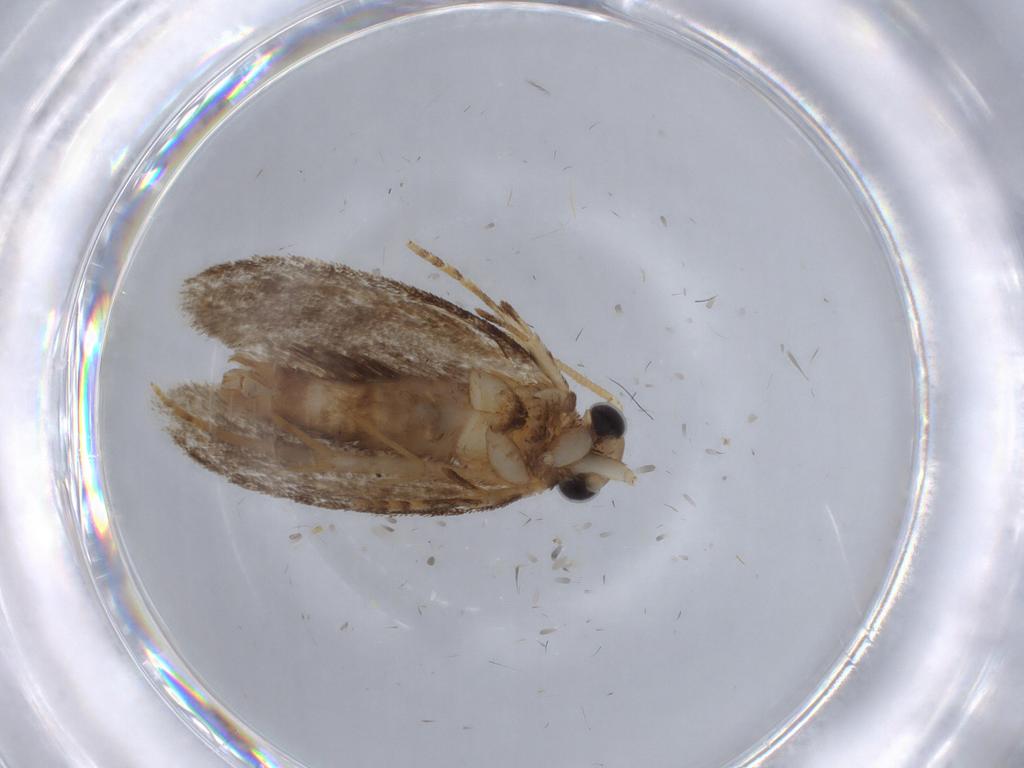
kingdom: Animalia
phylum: Arthropoda
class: Insecta
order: Lepidoptera
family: Tineidae
